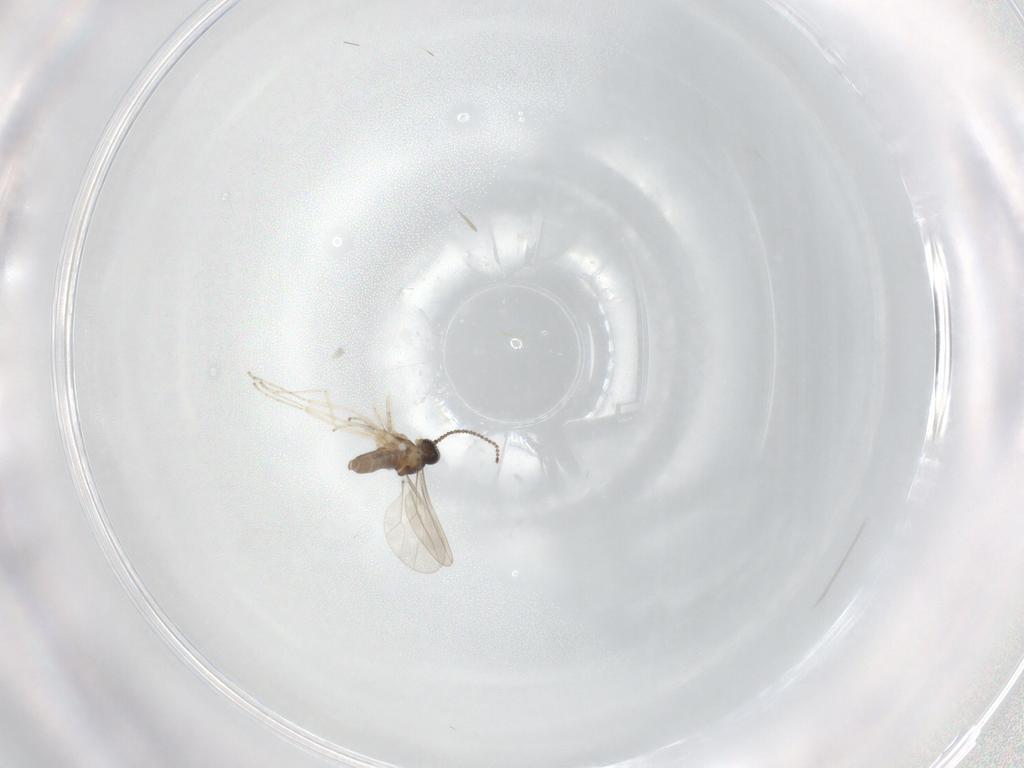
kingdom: Animalia
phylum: Arthropoda
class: Insecta
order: Diptera
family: Cecidomyiidae
